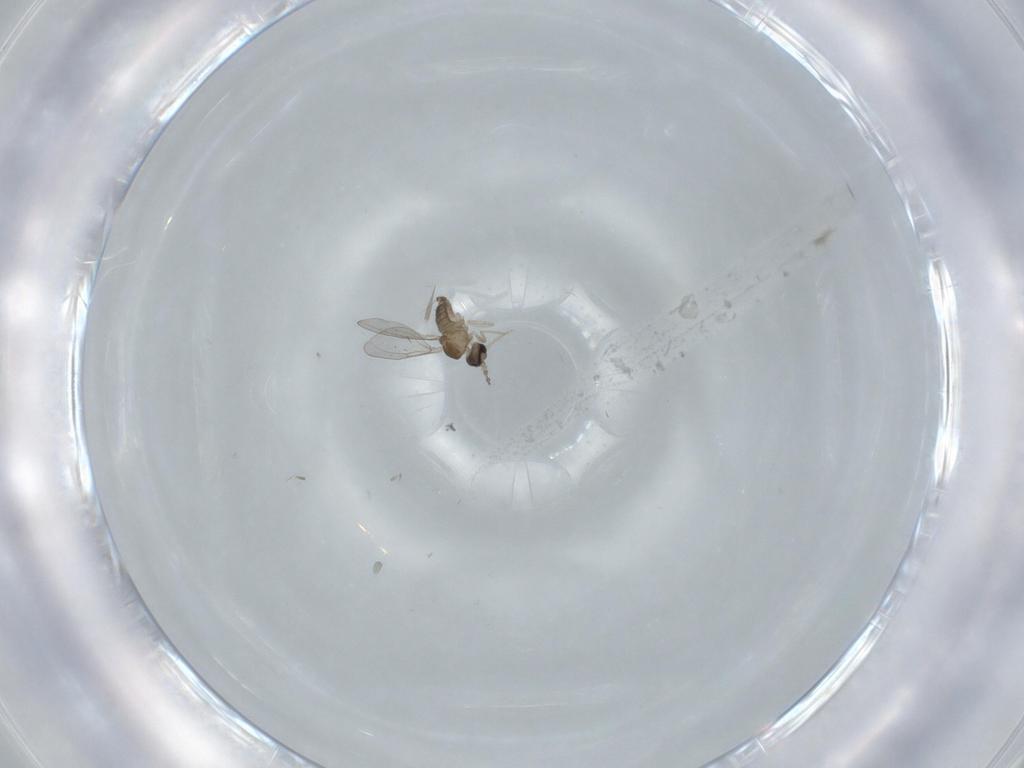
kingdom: Animalia
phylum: Arthropoda
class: Insecta
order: Diptera
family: Cecidomyiidae
